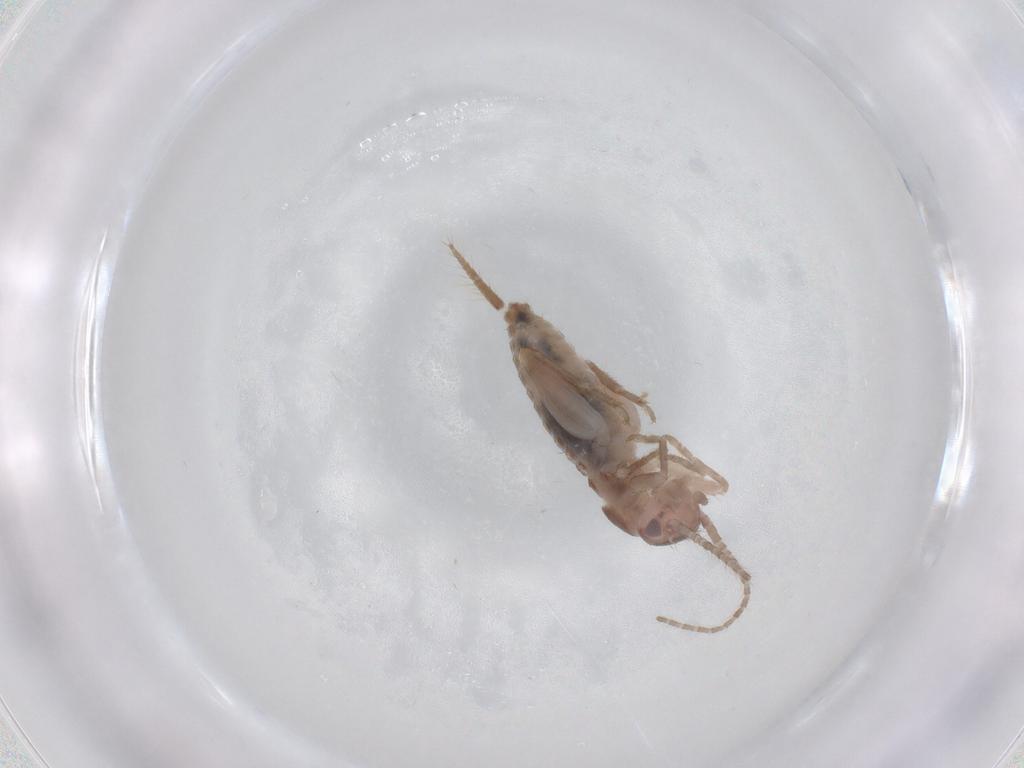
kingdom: Animalia
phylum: Arthropoda
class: Insecta
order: Orthoptera
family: Mogoplistidae
